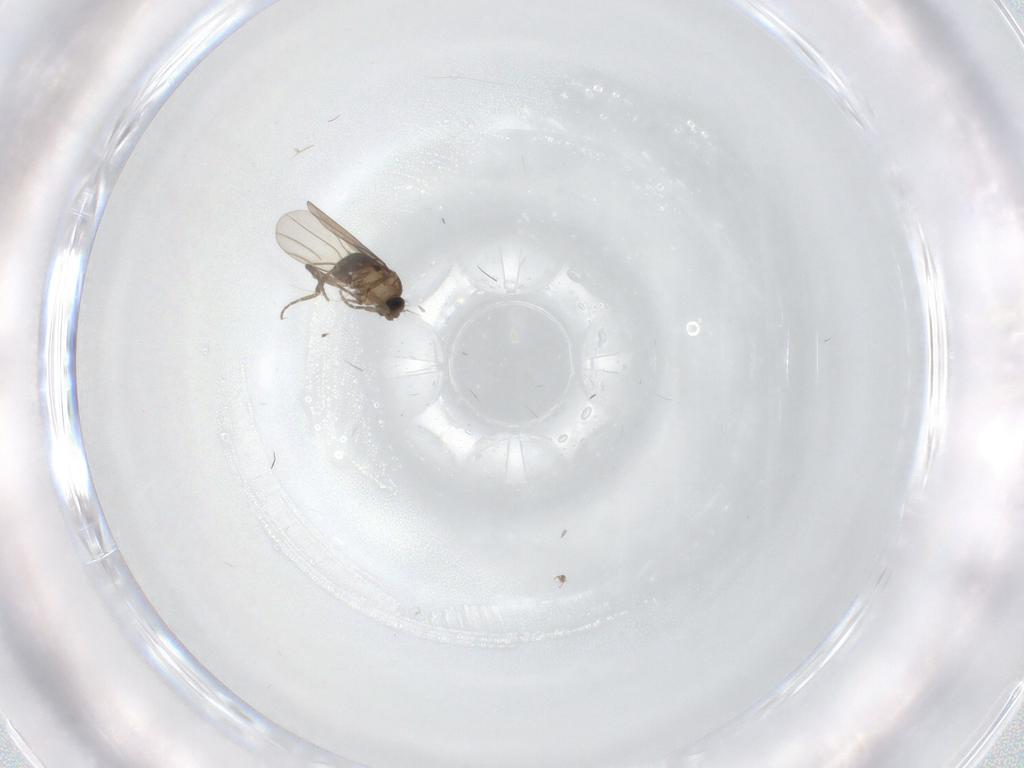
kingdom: Animalia
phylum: Arthropoda
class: Insecta
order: Diptera
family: Phoridae
